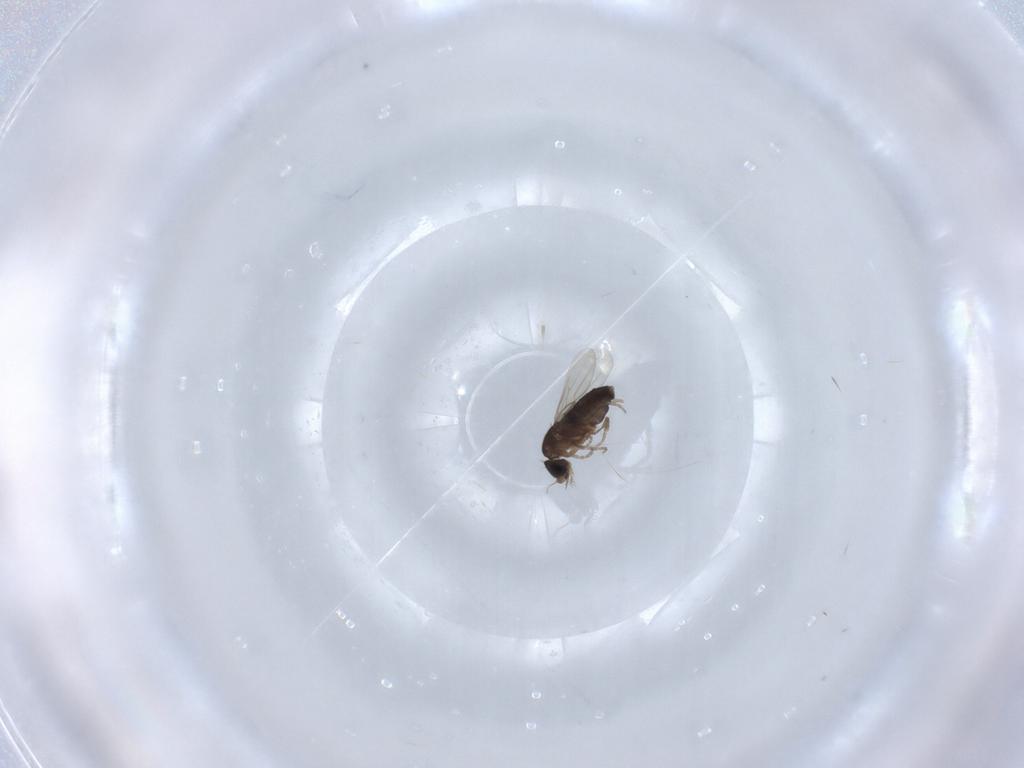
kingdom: Animalia
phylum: Arthropoda
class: Insecta
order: Diptera
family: Phoridae
